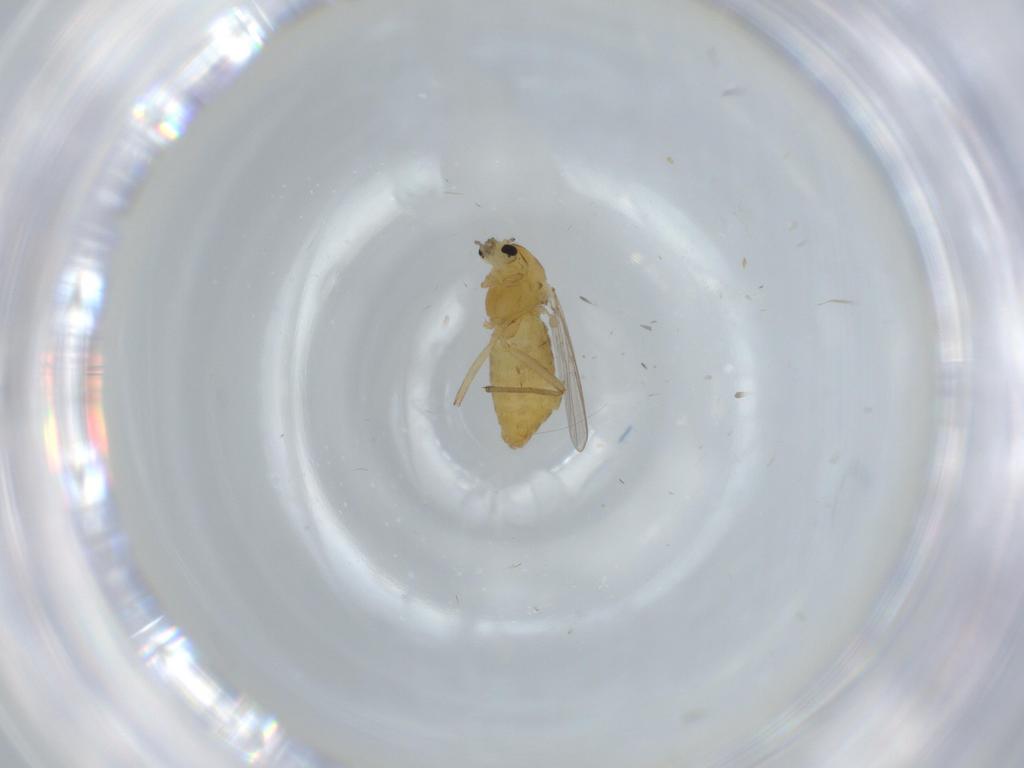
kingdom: Animalia
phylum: Arthropoda
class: Insecta
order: Diptera
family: Chironomidae
